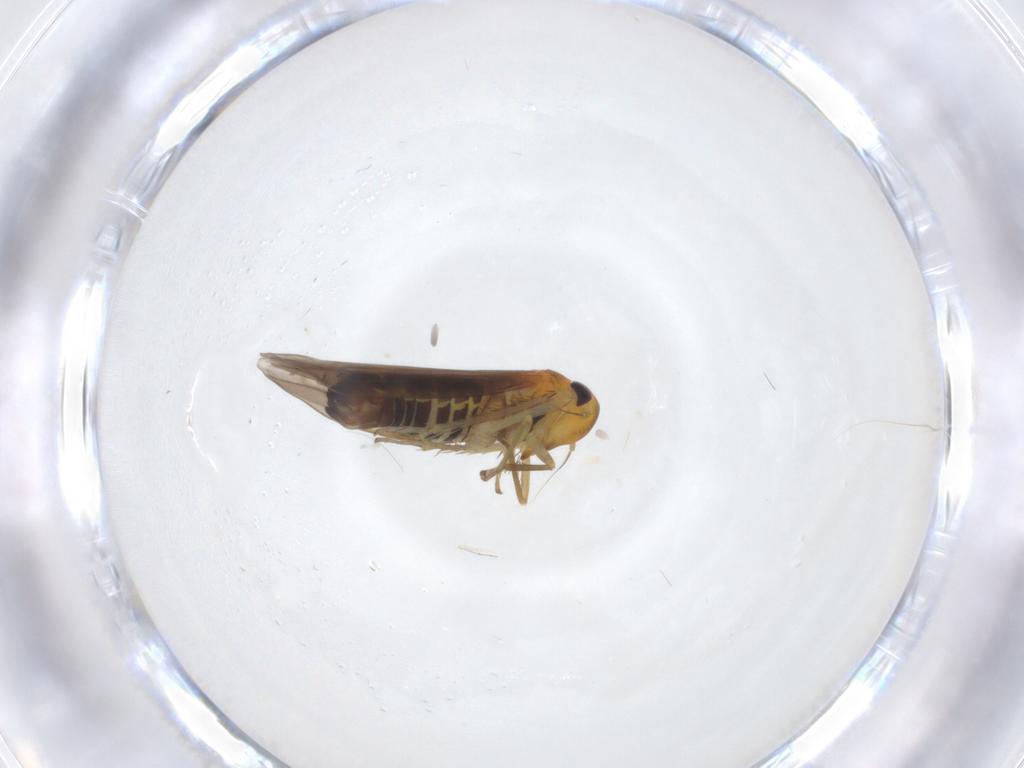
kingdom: Animalia
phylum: Arthropoda
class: Insecta
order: Hemiptera
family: Cicadellidae
